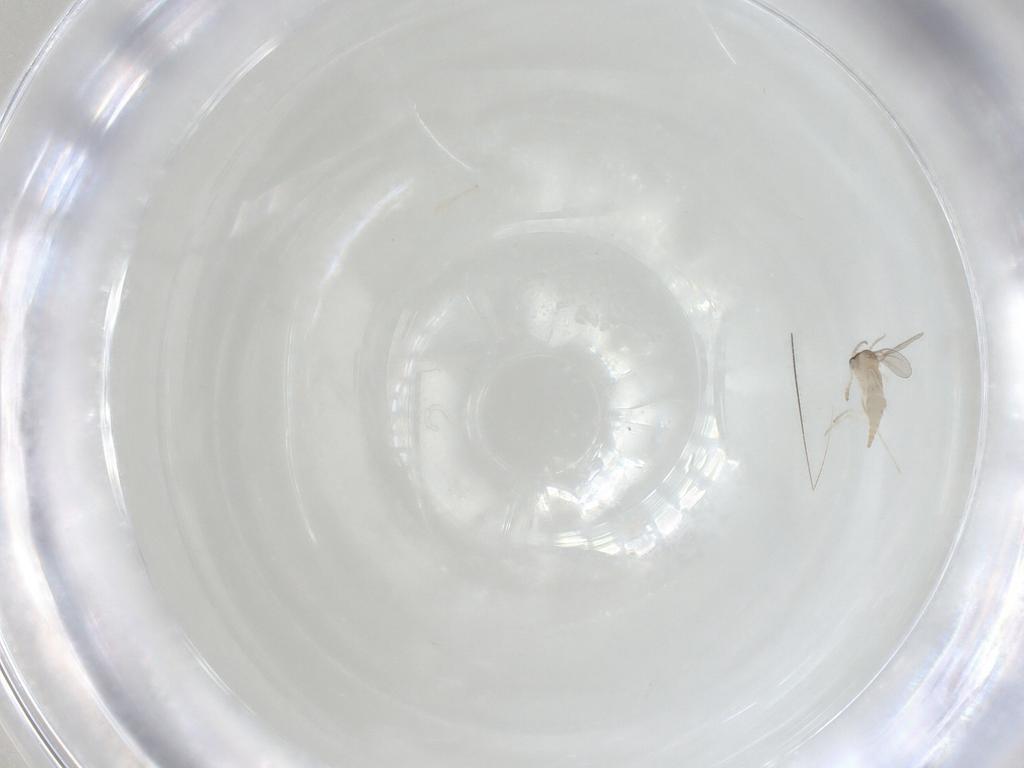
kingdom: Animalia
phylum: Arthropoda
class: Insecta
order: Diptera
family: Cecidomyiidae
